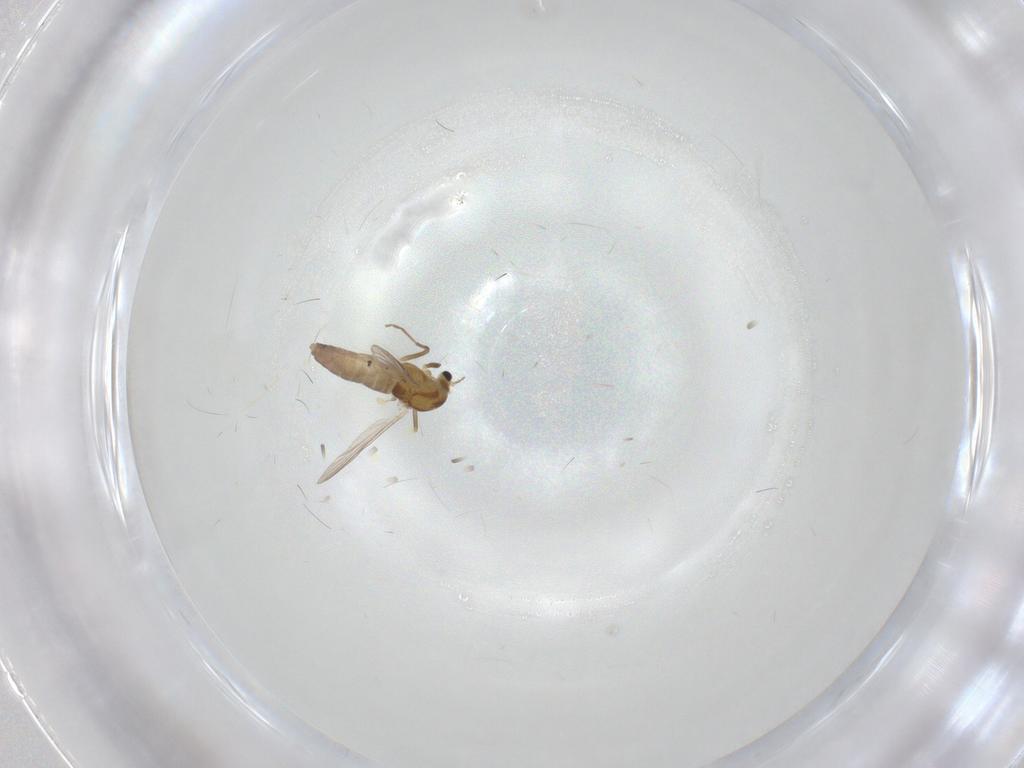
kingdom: Animalia
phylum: Arthropoda
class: Insecta
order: Diptera
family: Chironomidae
